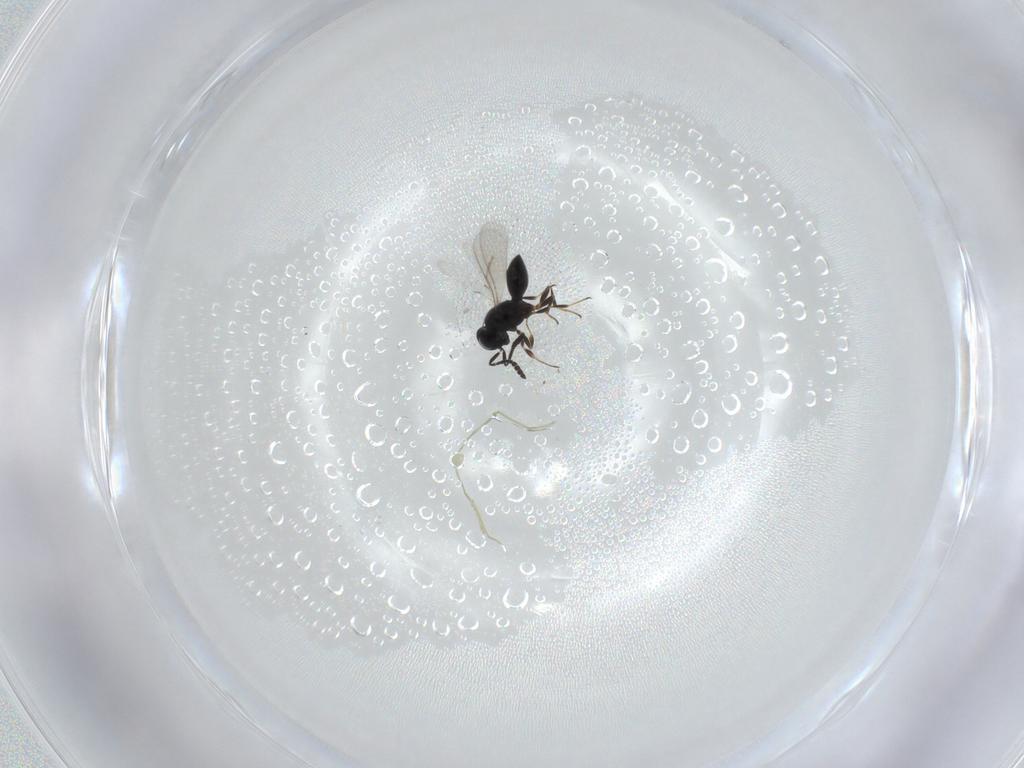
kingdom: Animalia
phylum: Arthropoda
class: Insecta
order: Hymenoptera
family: Scelionidae
